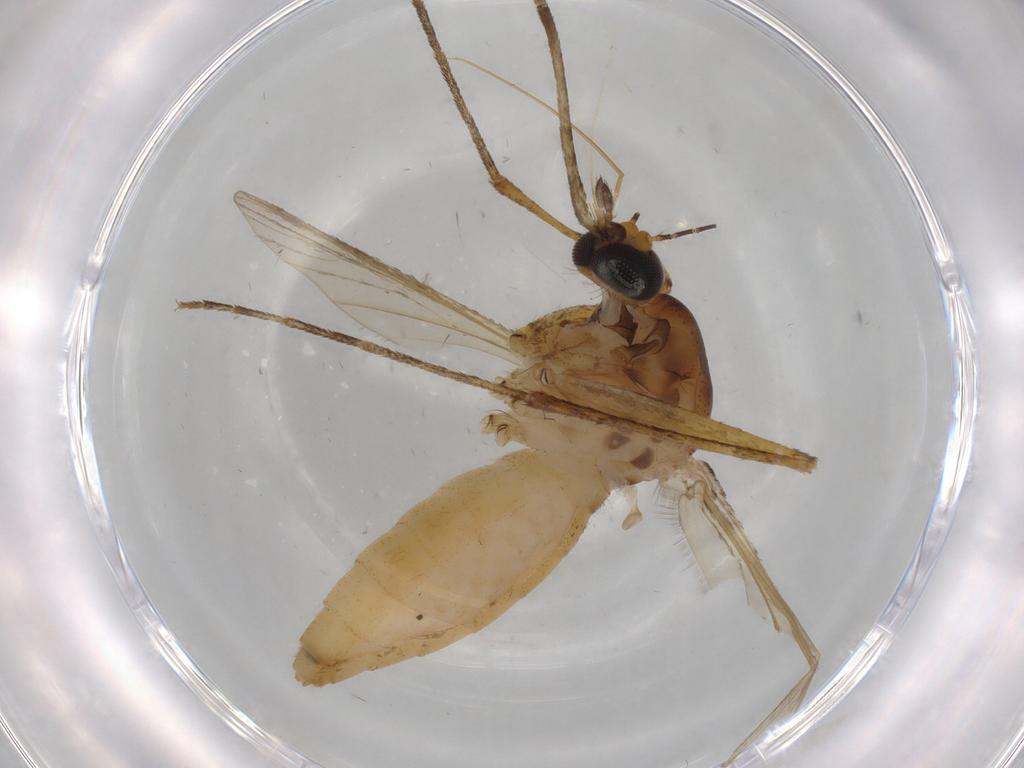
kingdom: Animalia
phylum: Arthropoda
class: Insecta
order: Diptera
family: Culicidae
